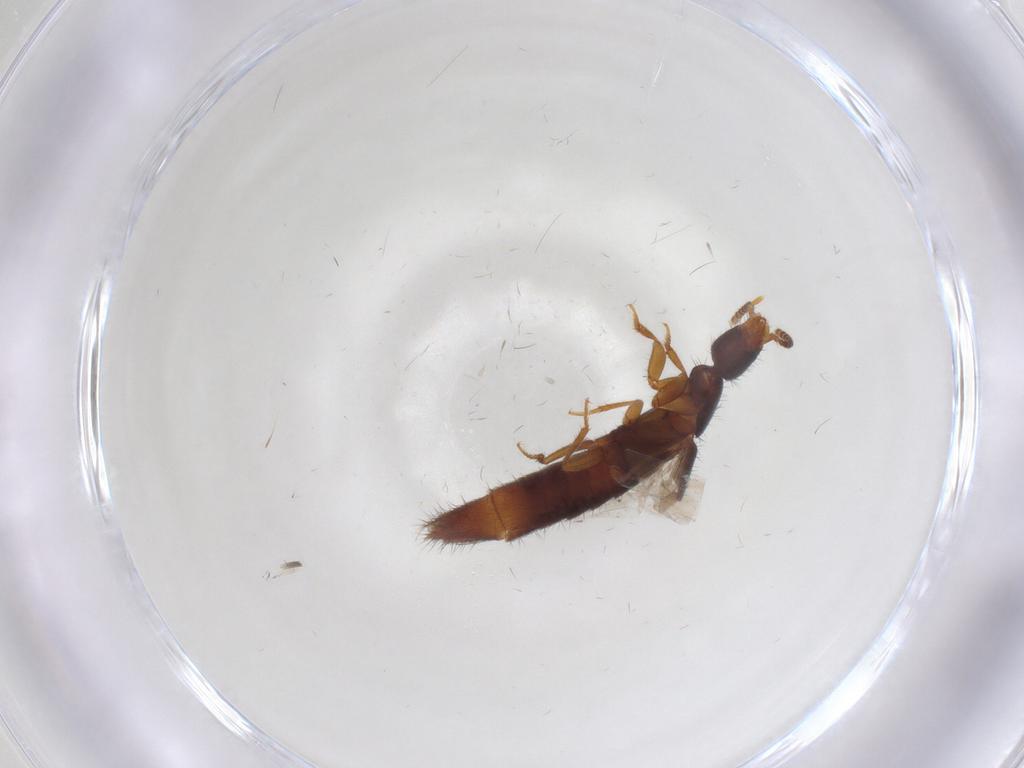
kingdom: Animalia
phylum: Arthropoda
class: Insecta
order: Coleoptera
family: Staphylinidae
